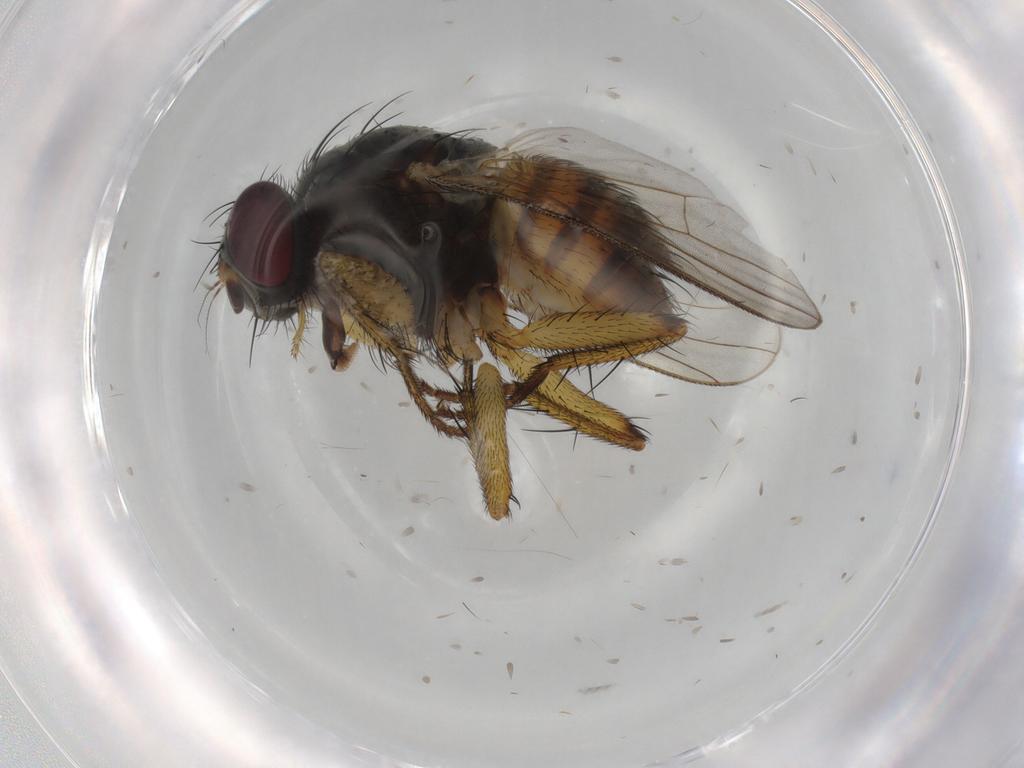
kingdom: Animalia
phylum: Arthropoda
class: Insecta
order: Diptera
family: Muscidae
